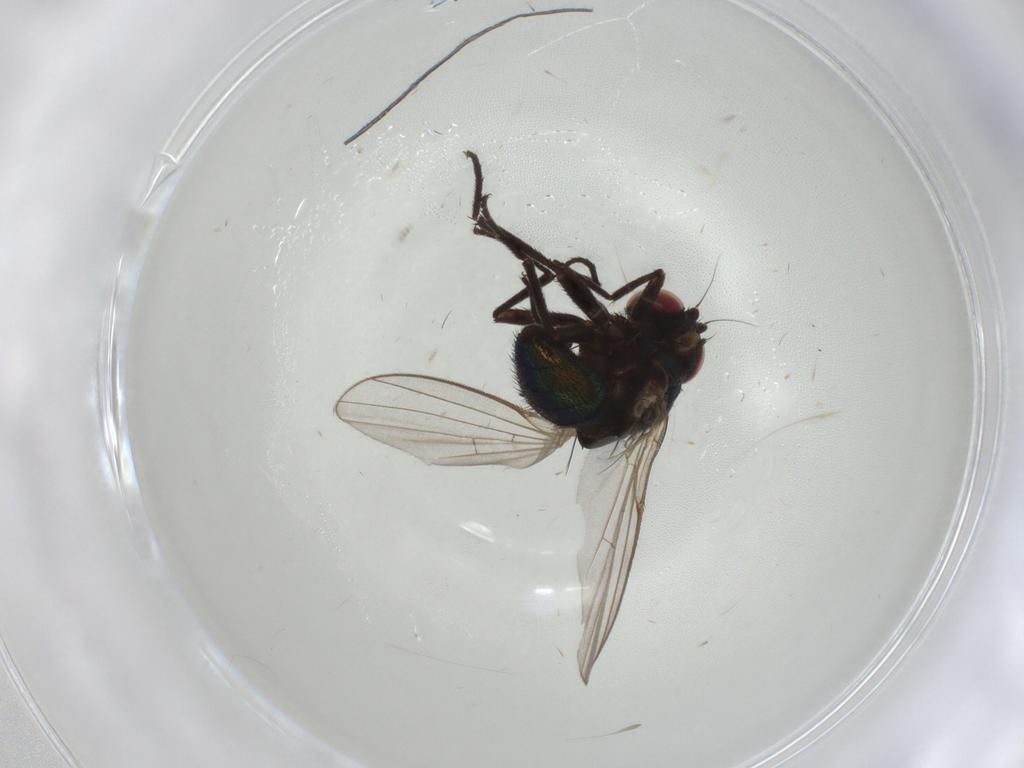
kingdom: Animalia
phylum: Arthropoda
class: Insecta
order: Diptera
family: Agromyzidae
